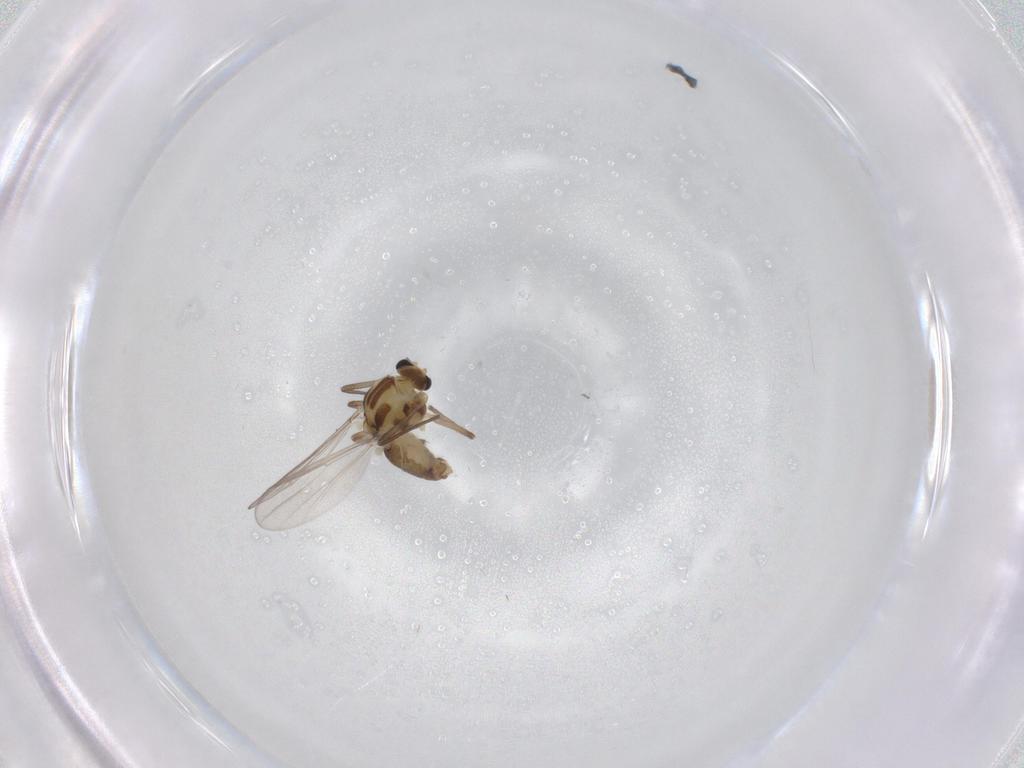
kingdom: Animalia
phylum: Arthropoda
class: Insecta
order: Diptera
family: Chironomidae
